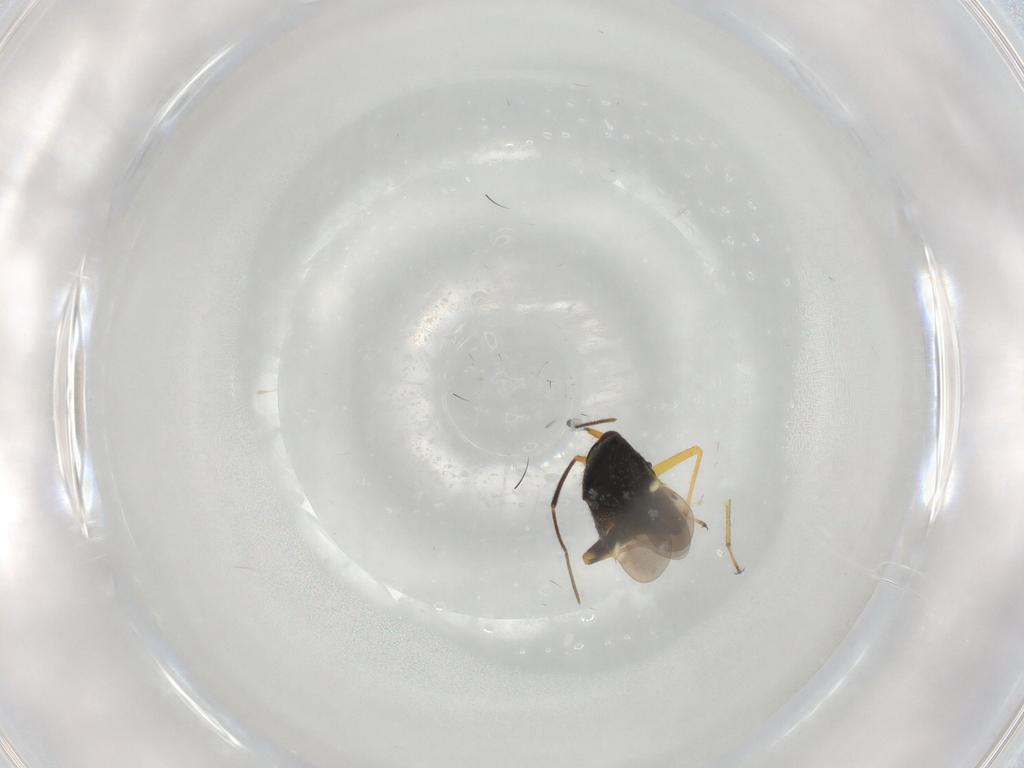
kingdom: Animalia
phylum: Arthropoda
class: Insecta
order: Hemiptera
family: Miridae
